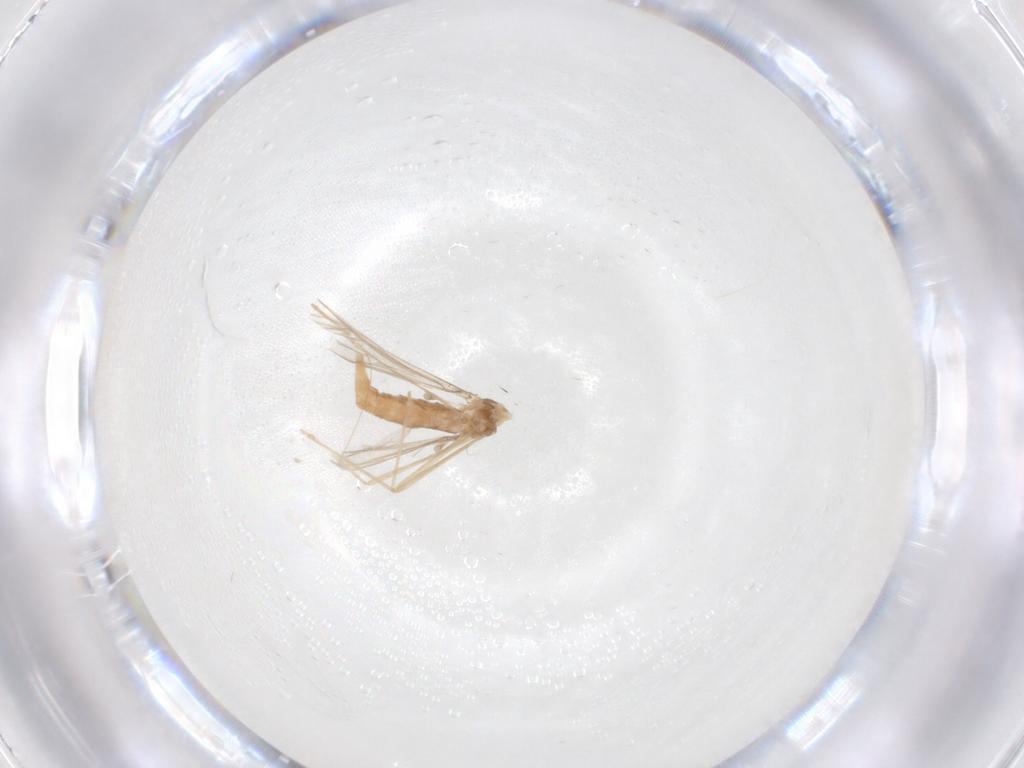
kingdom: Animalia
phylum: Arthropoda
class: Insecta
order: Diptera
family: Cecidomyiidae
